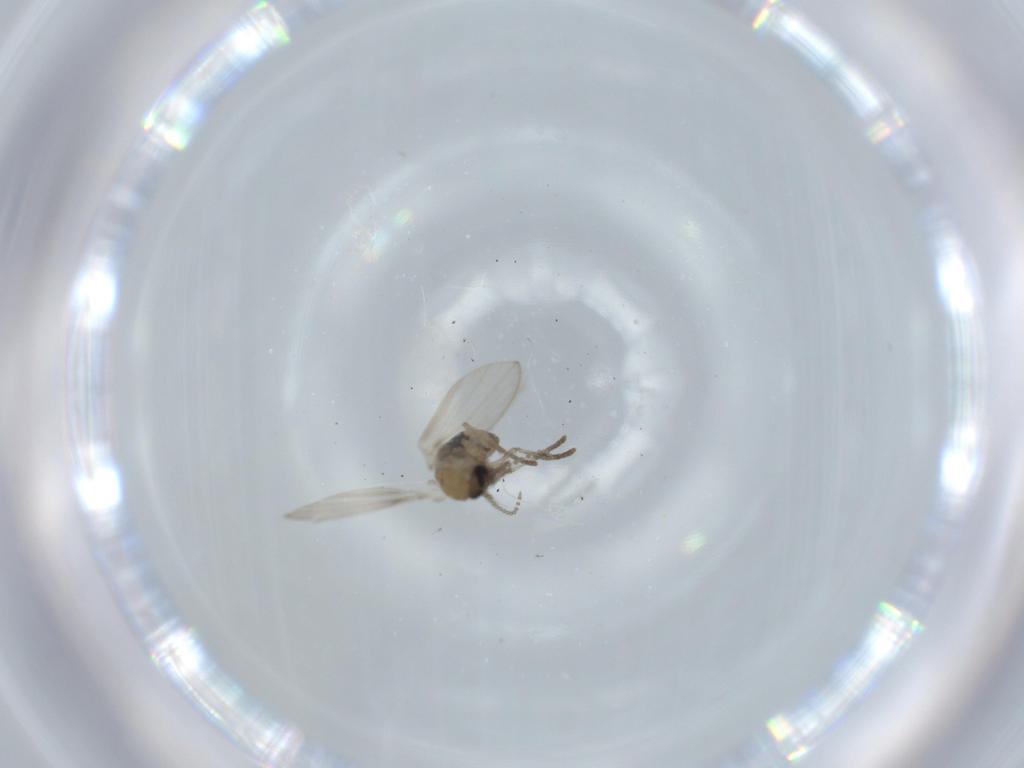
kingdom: Animalia
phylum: Arthropoda
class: Insecta
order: Diptera
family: Psychodidae
